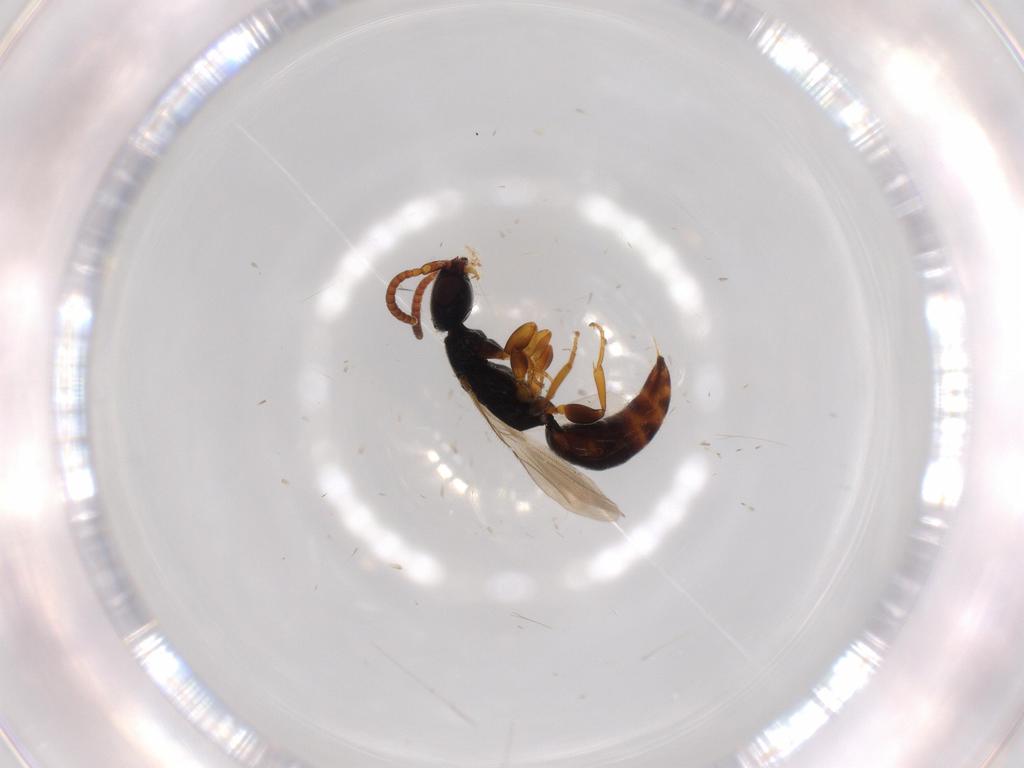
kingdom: Animalia
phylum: Arthropoda
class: Insecta
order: Hymenoptera
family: Bethylidae
